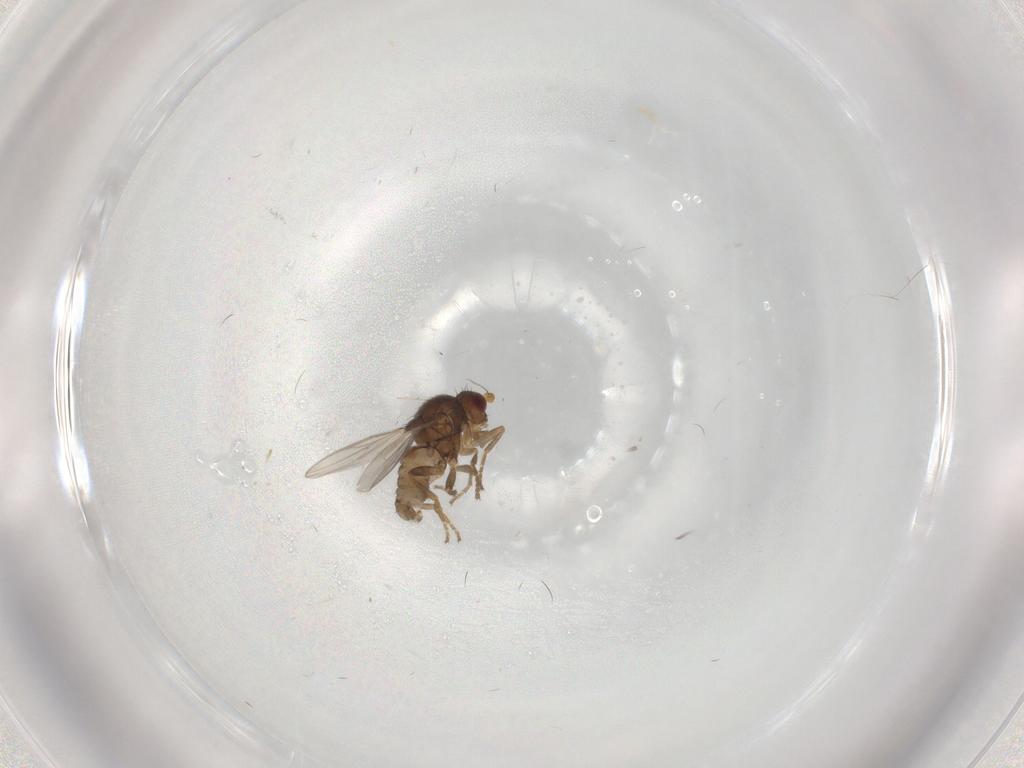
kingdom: Animalia
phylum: Arthropoda
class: Insecta
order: Diptera
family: Sphaeroceridae
